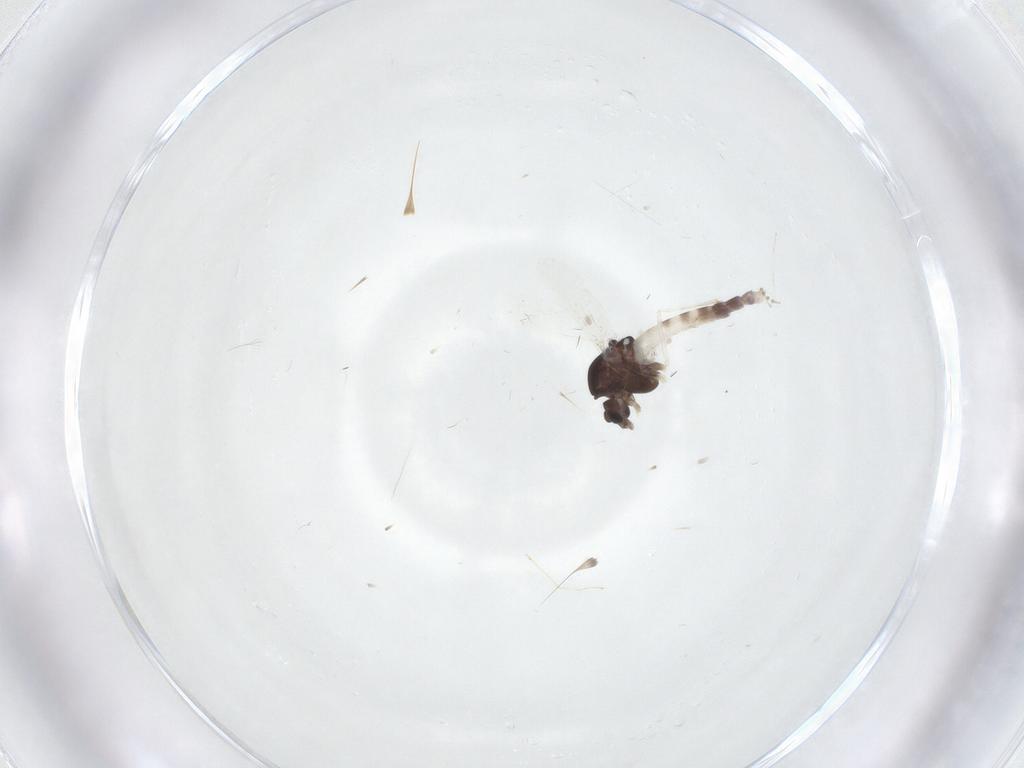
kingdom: Animalia
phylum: Arthropoda
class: Insecta
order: Diptera
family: Chironomidae
